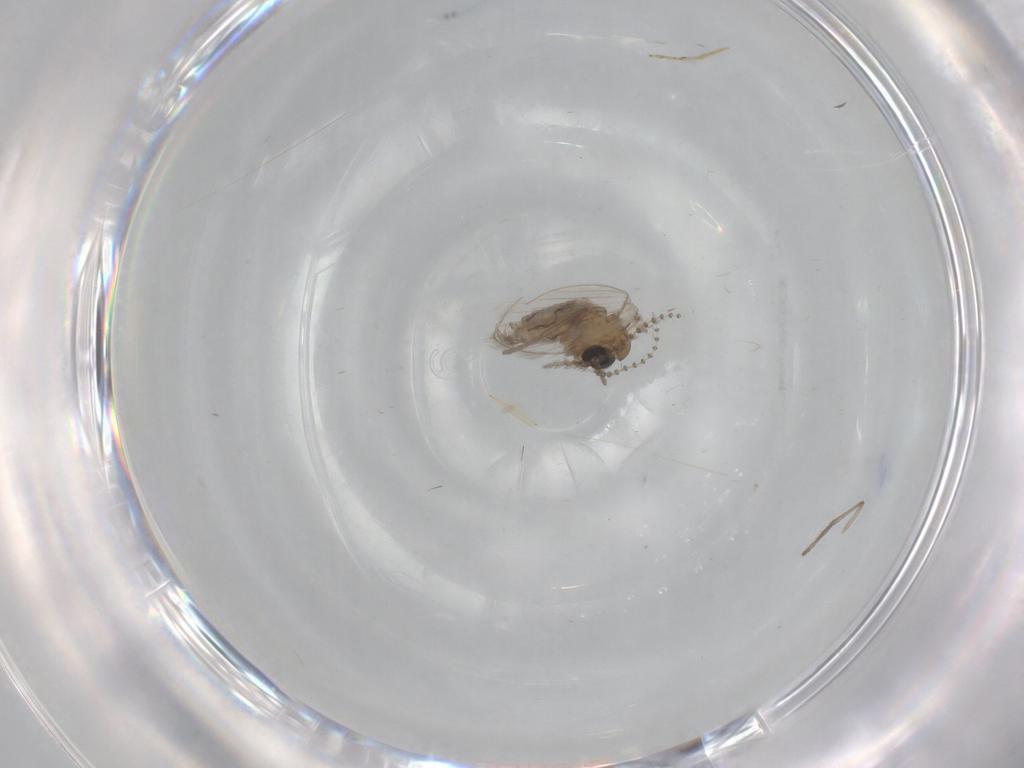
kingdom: Animalia
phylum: Arthropoda
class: Insecta
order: Diptera
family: Psychodidae
